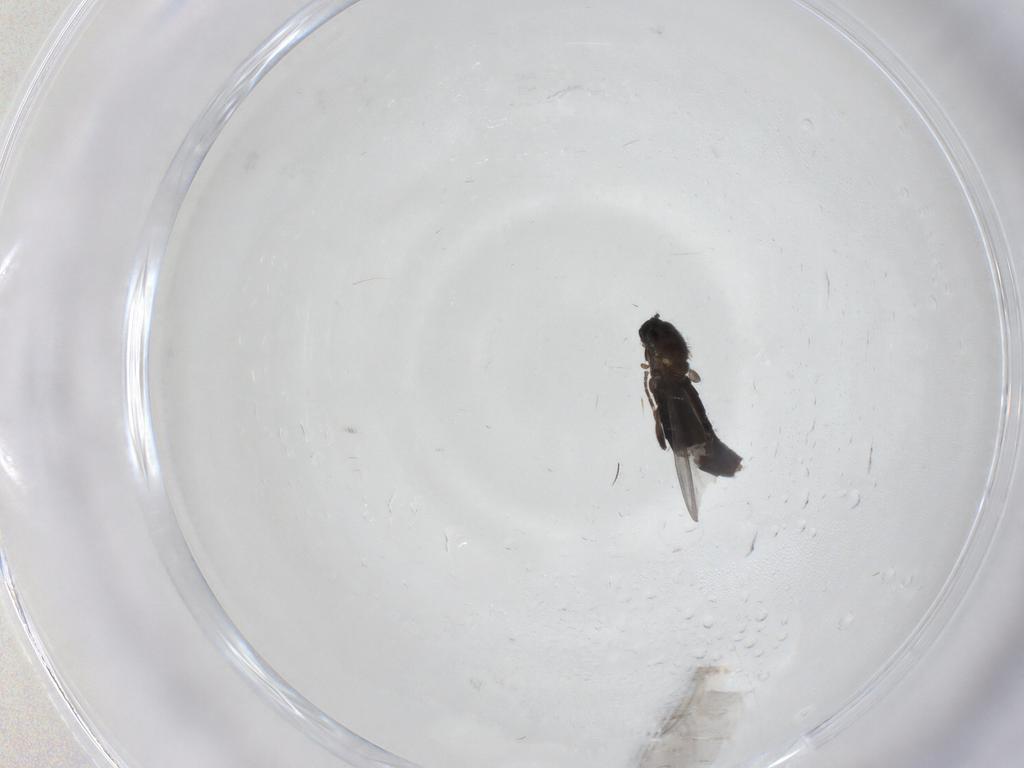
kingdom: Animalia
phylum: Arthropoda
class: Insecta
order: Diptera
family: Scatopsidae
